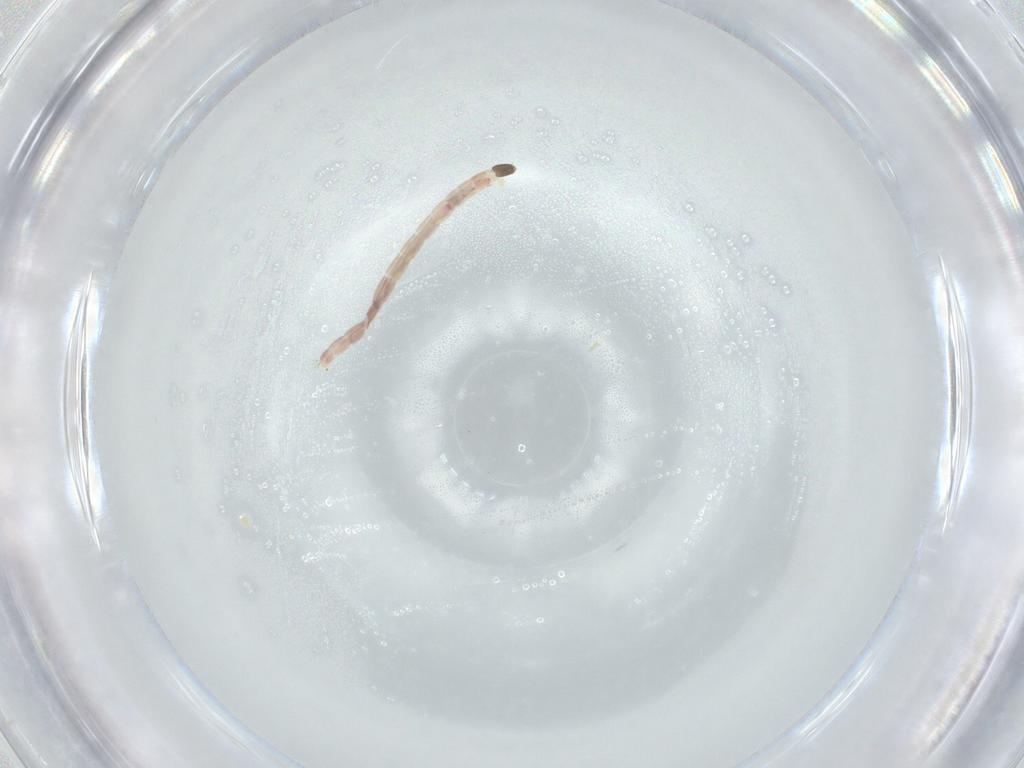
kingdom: Animalia
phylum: Arthropoda
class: Insecta
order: Diptera
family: Chironomidae
